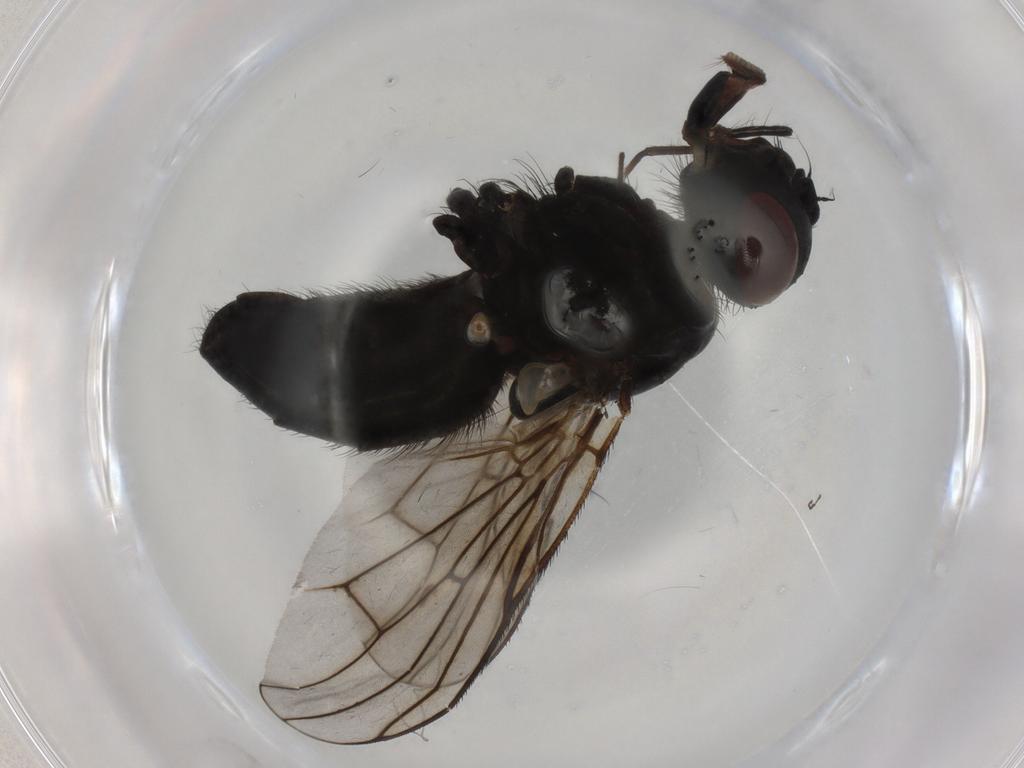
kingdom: Animalia
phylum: Arthropoda
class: Insecta
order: Diptera
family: Muscidae
